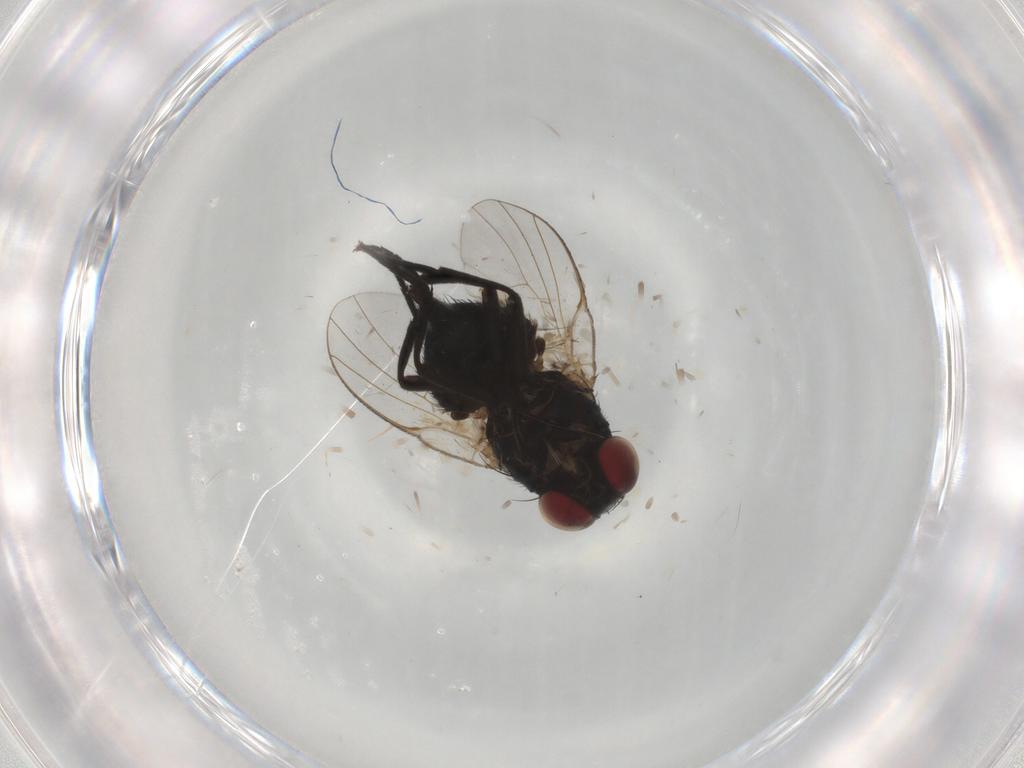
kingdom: Animalia
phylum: Arthropoda
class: Insecta
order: Diptera
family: Agromyzidae
